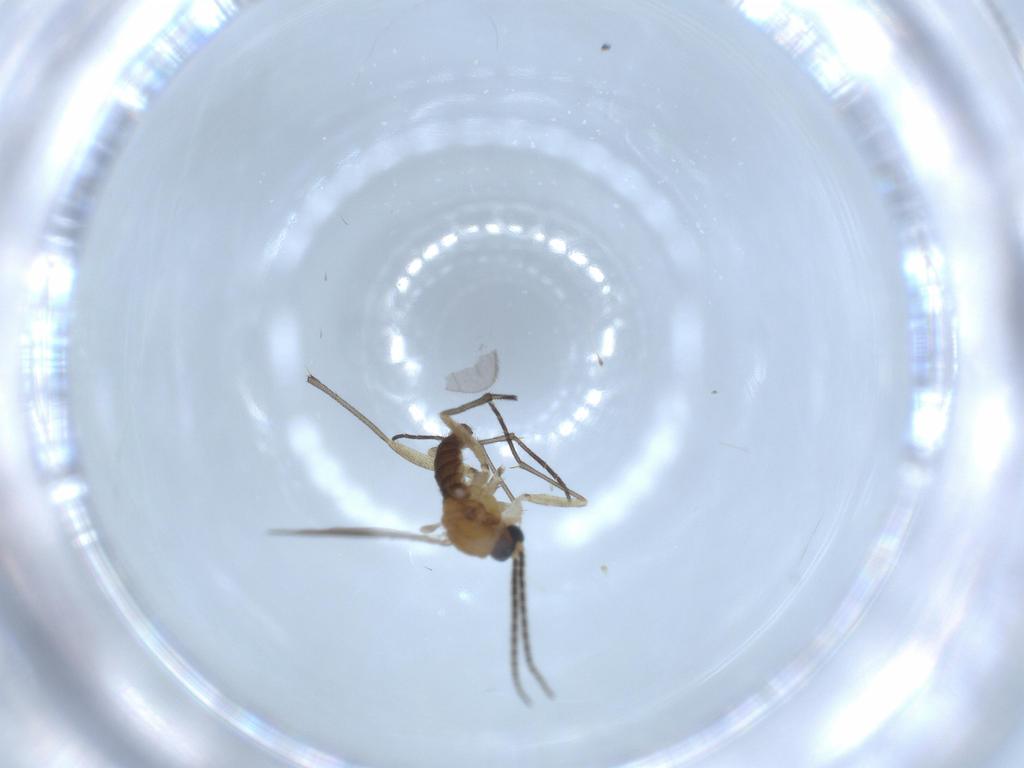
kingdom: Animalia
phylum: Arthropoda
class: Insecta
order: Diptera
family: Sciaridae
